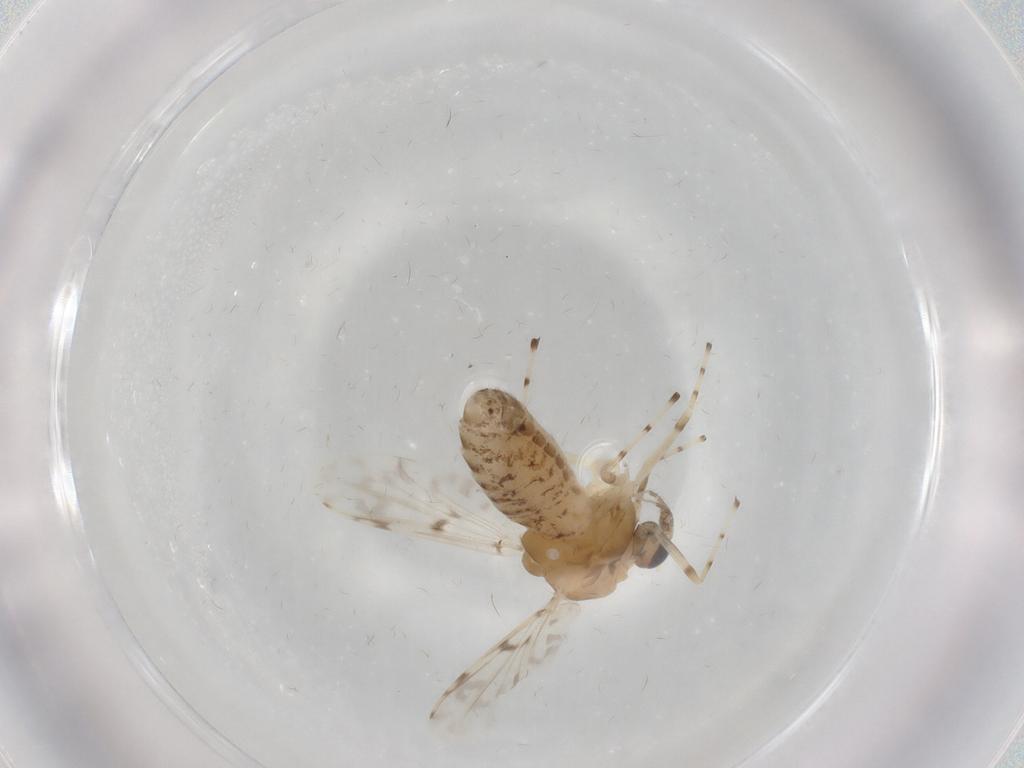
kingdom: Animalia
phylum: Arthropoda
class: Insecta
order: Diptera
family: Chironomidae
